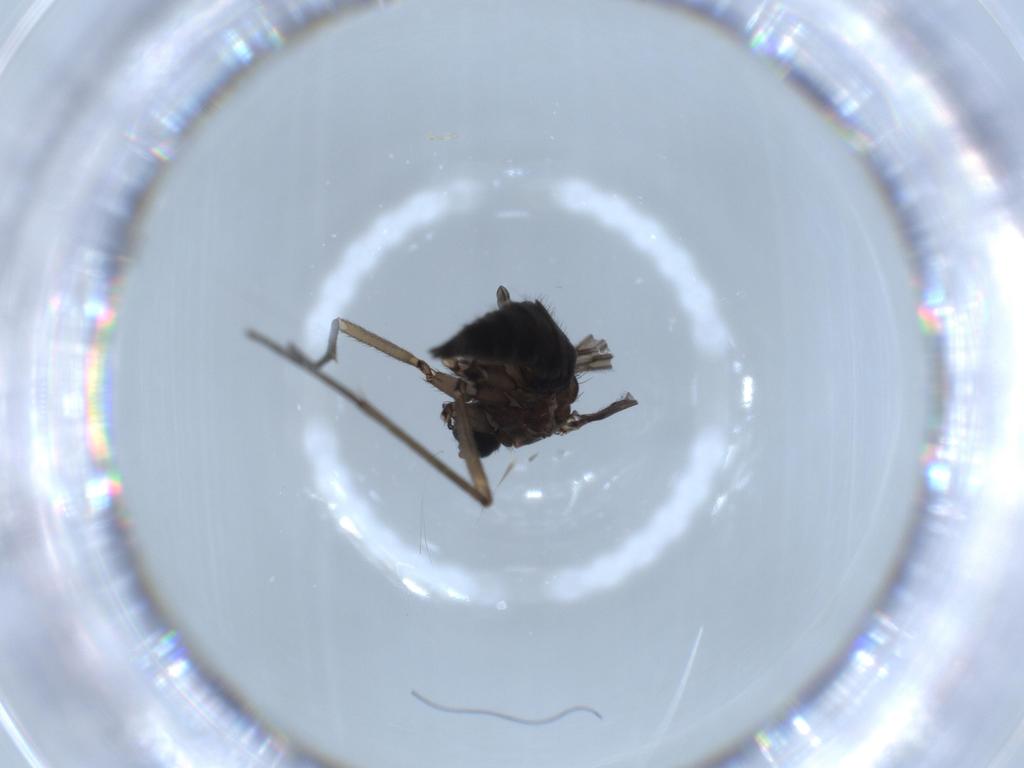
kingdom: Animalia
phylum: Arthropoda
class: Insecta
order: Diptera
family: Sciaridae
